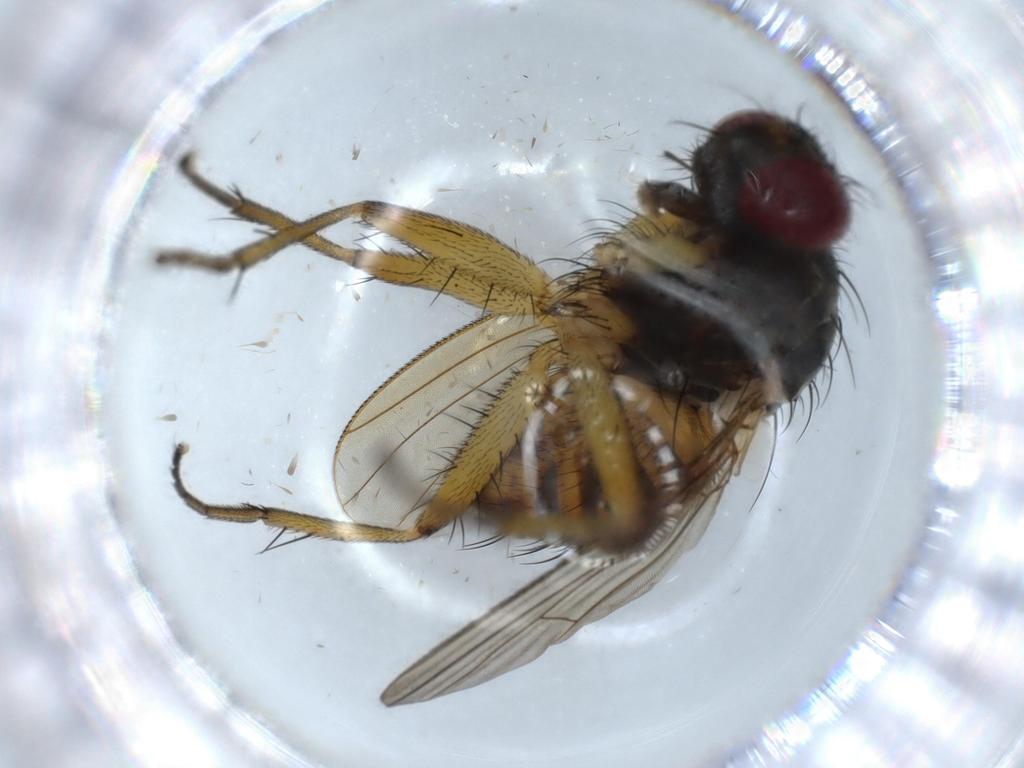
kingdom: Animalia
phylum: Arthropoda
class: Insecta
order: Diptera
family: Muscidae
